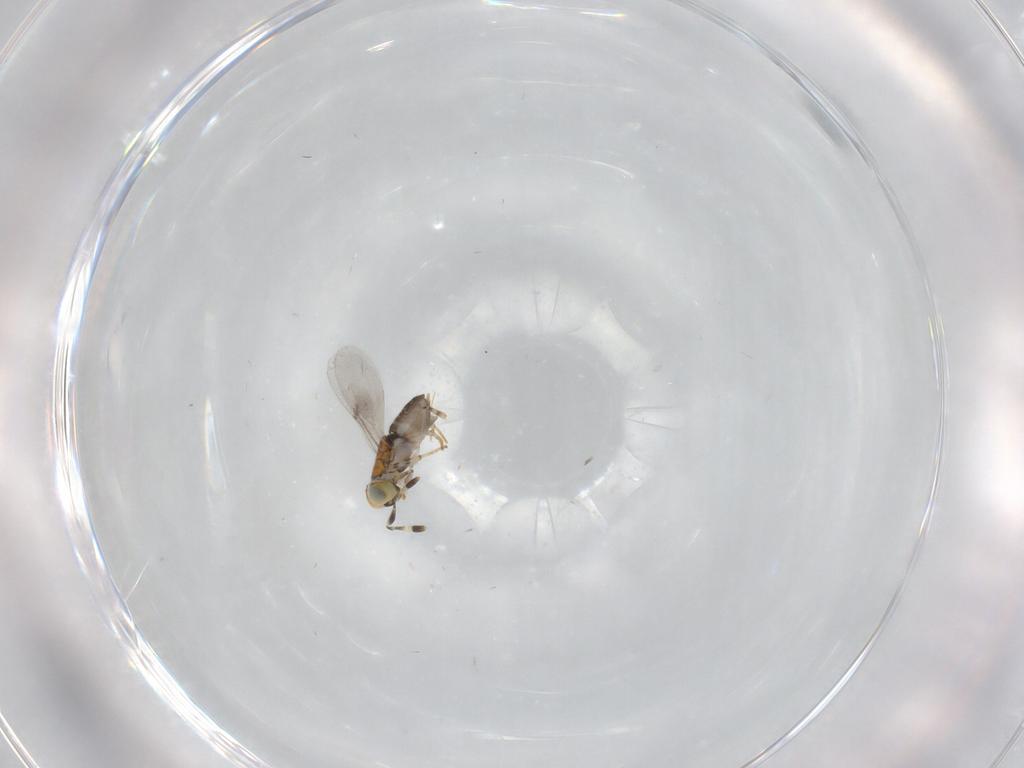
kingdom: Animalia
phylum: Arthropoda
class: Insecta
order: Hymenoptera
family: Encyrtidae
